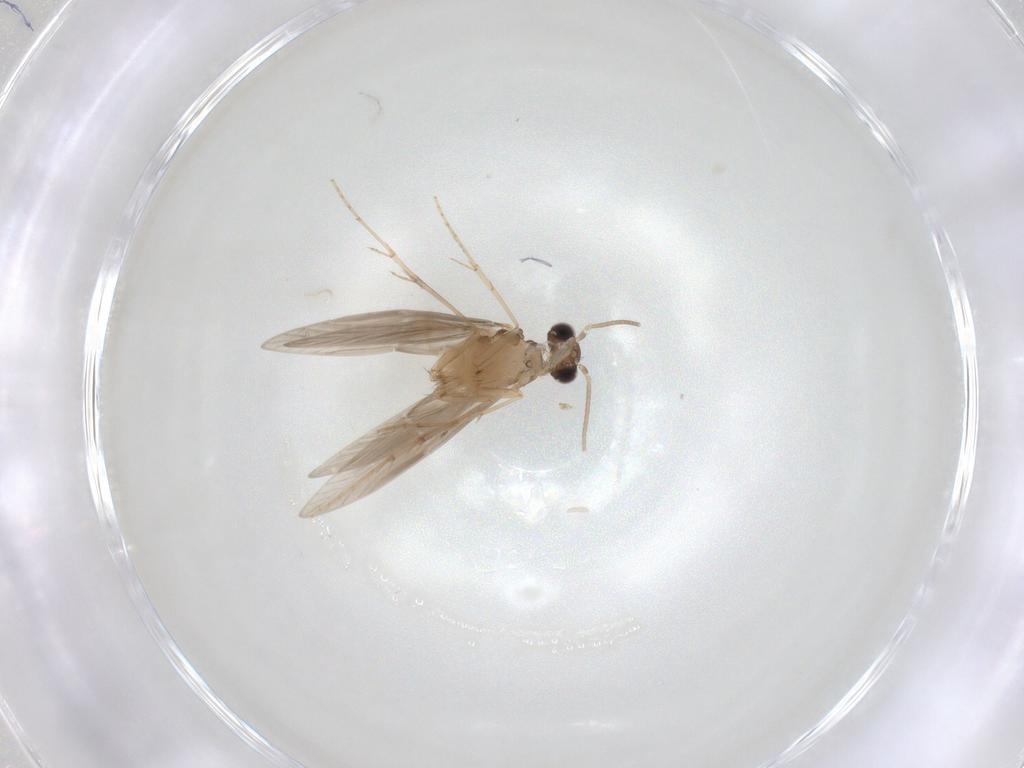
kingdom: Animalia
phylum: Arthropoda
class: Insecta
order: Trichoptera
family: Hydroptilidae
